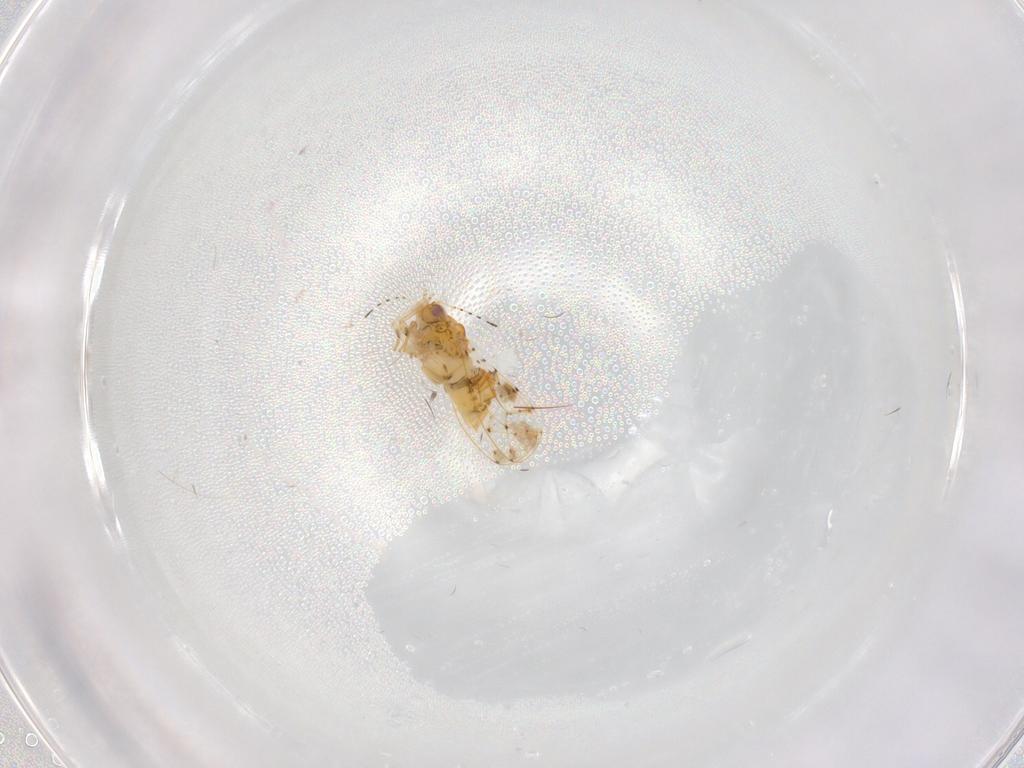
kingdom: Animalia
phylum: Arthropoda
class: Insecta
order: Hemiptera
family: Aphalaridae
